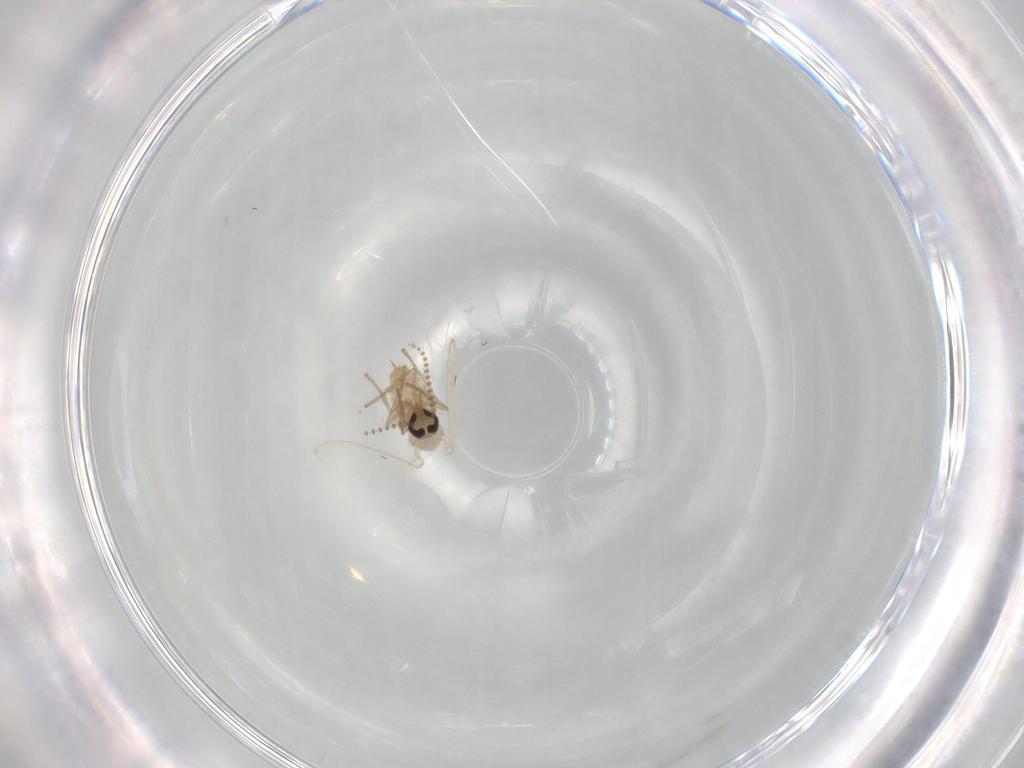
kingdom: Animalia
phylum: Arthropoda
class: Insecta
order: Diptera
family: Psychodidae
